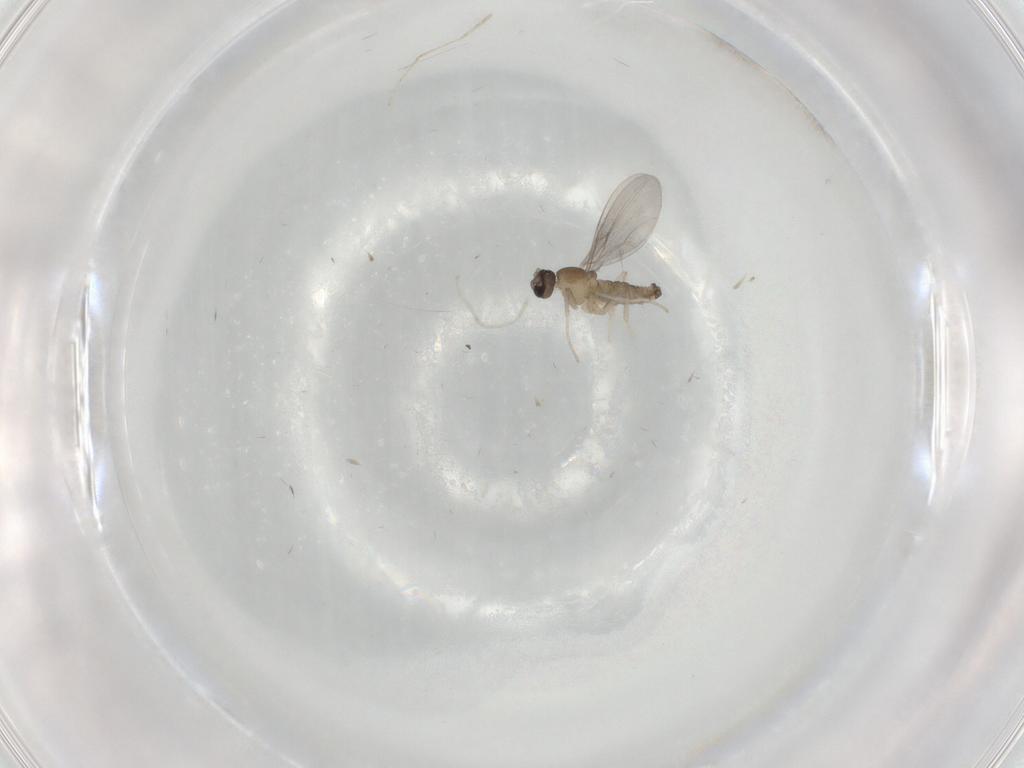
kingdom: Animalia
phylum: Arthropoda
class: Insecta
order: Diptera
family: Cecidomyiidae
